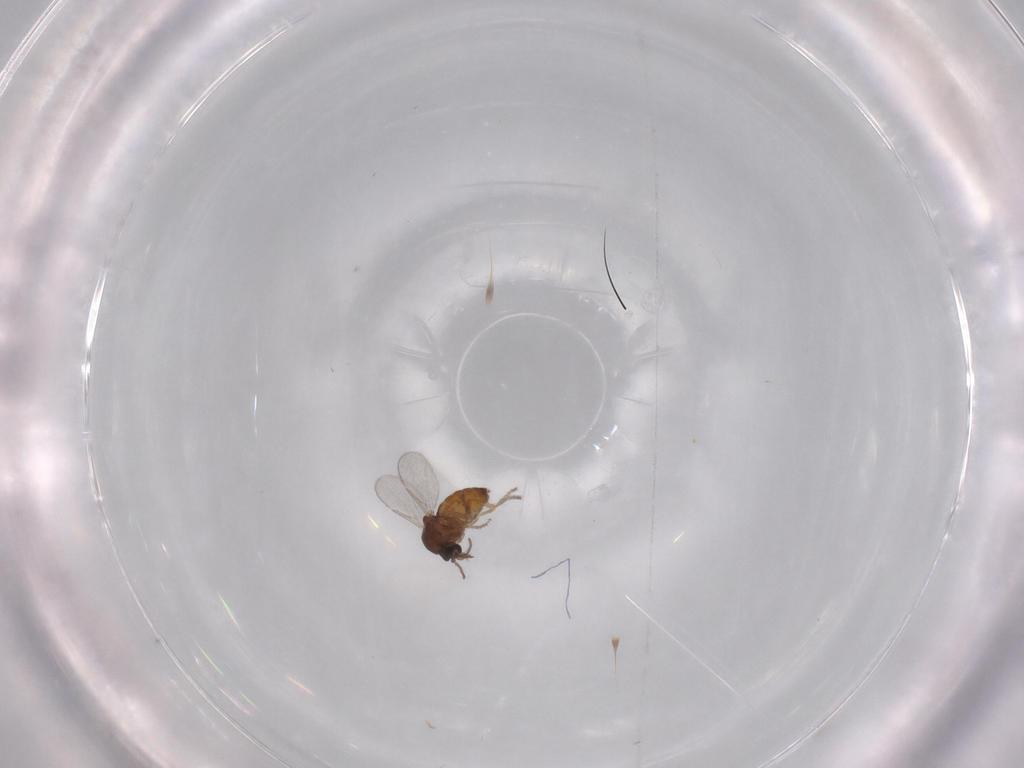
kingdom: Animalia
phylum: Arthropoda
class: Insecta
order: Diptera
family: Ceratopogonidae
